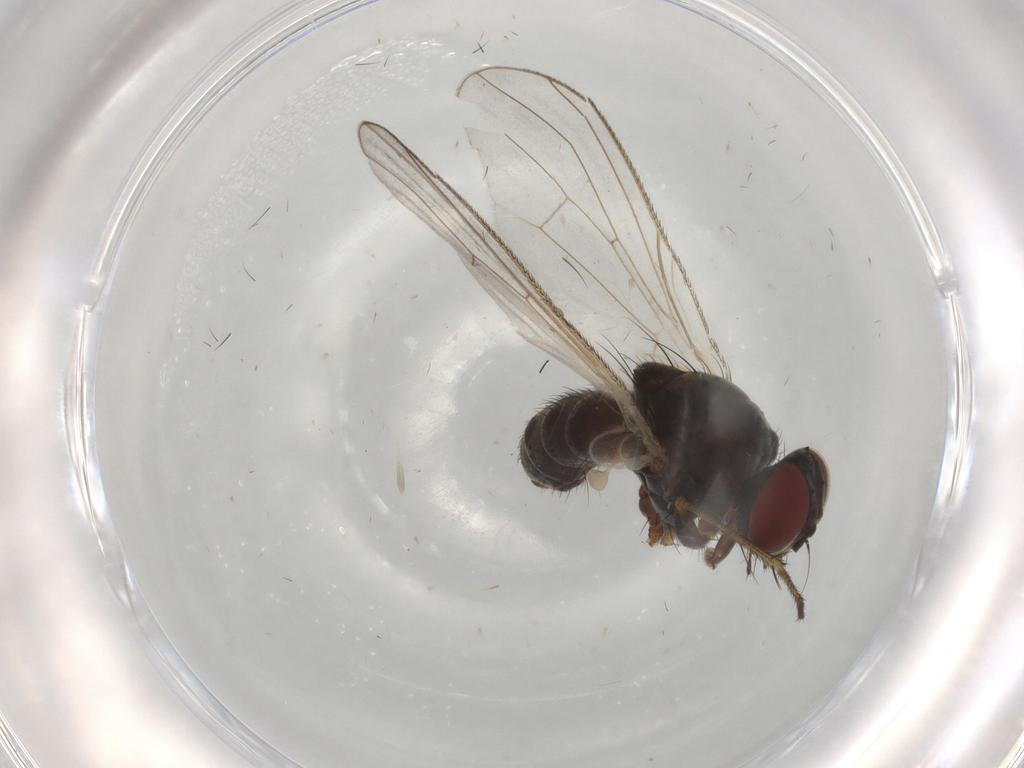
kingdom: Animalia
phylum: Arthropoda
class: Insecta
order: Diptera
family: Muscidae
